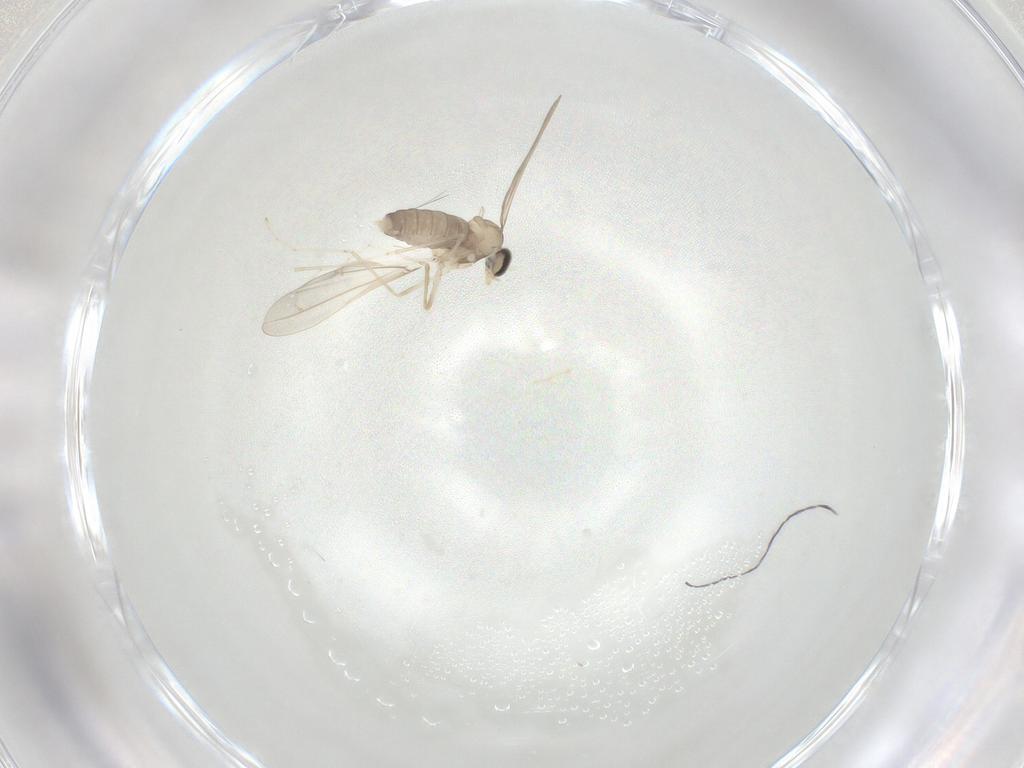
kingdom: Animalia
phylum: Arthropoda
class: Insecta
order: Diptera
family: Cecidomyiidae
